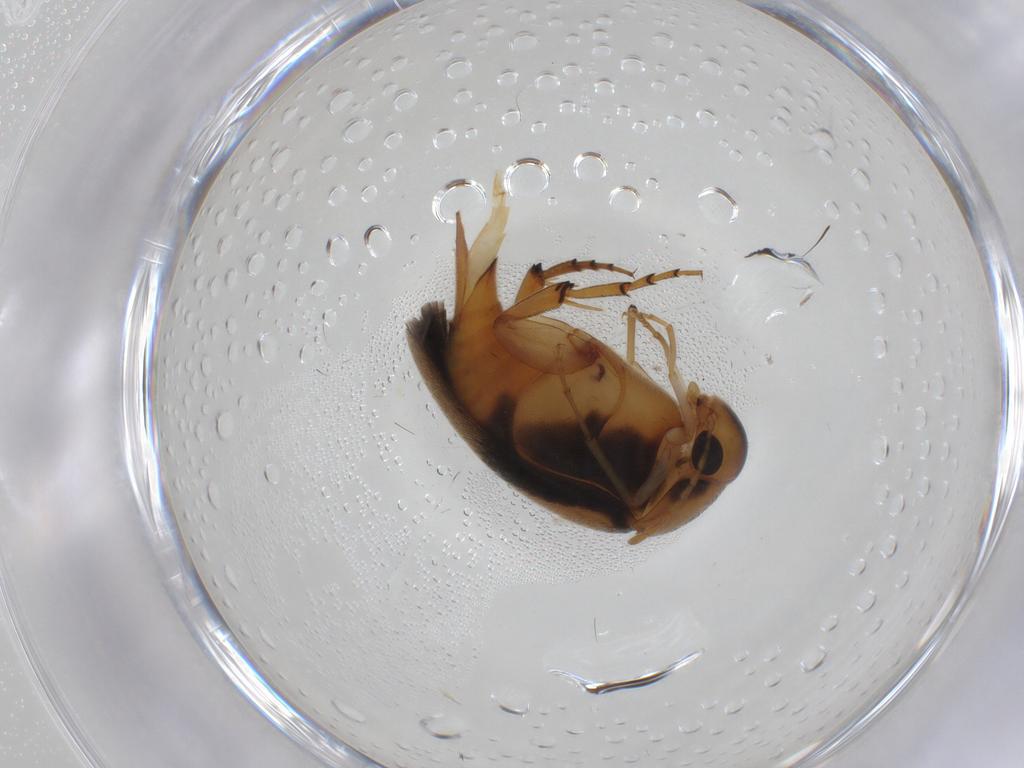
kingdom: Animalia
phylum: Arthropoda
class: Insecta
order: Coleoptera
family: Mordellidae
